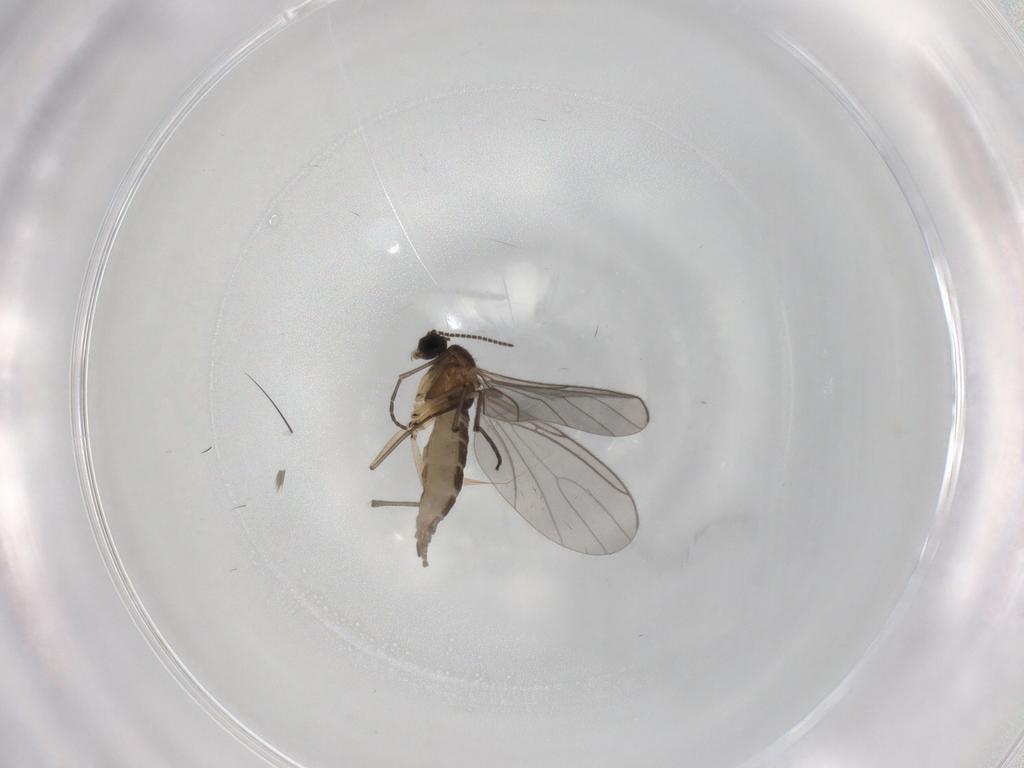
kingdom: Animalia
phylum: Arthropoda
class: Insecta
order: Diptera
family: Sciaridae
